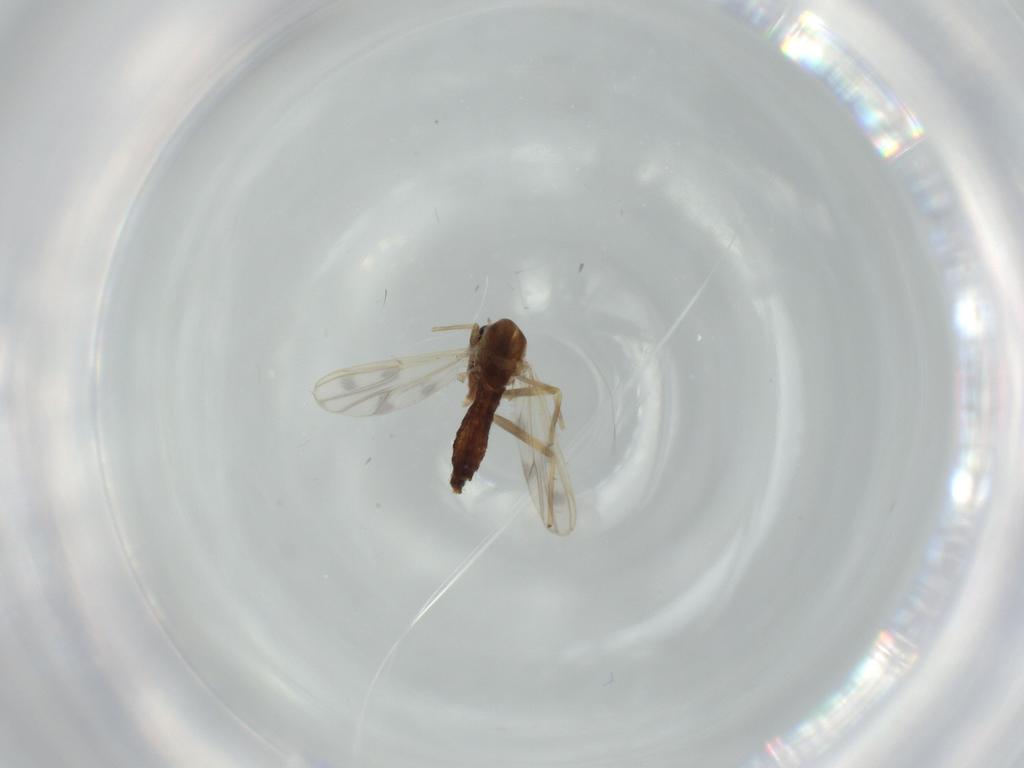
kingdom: Animalia
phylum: Arthropoda
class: Insecta
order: Diptera
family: Chironomidae
